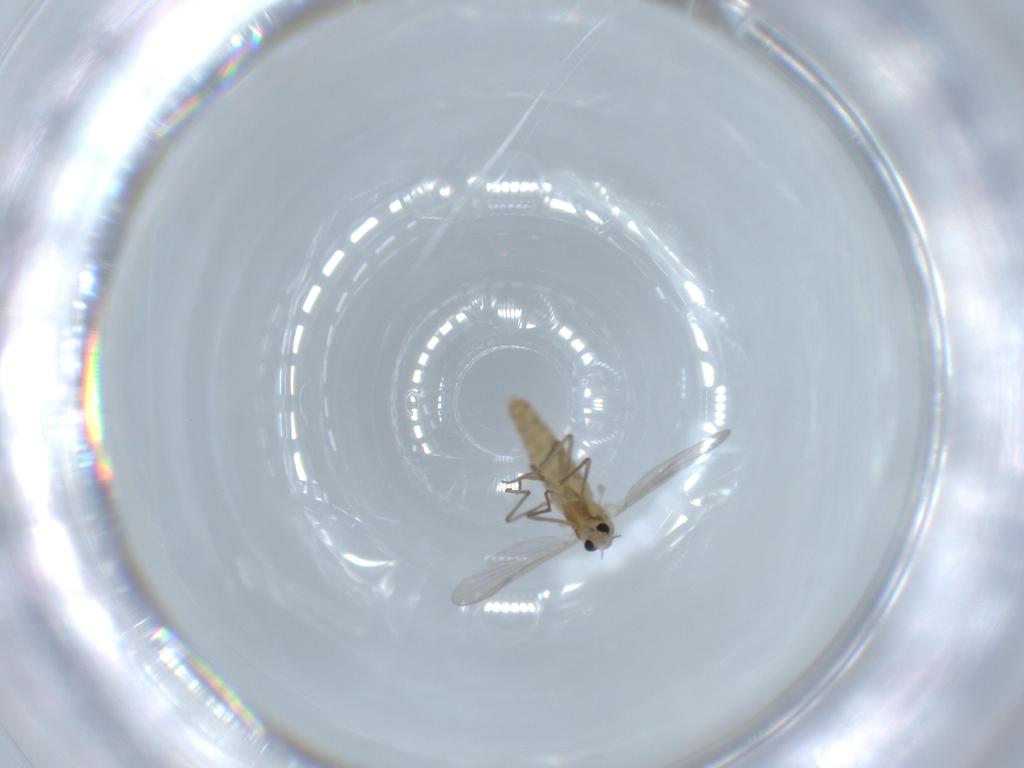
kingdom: Animalia
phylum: Arthropoda
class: Insecta
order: Diptera
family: Chironomidae
